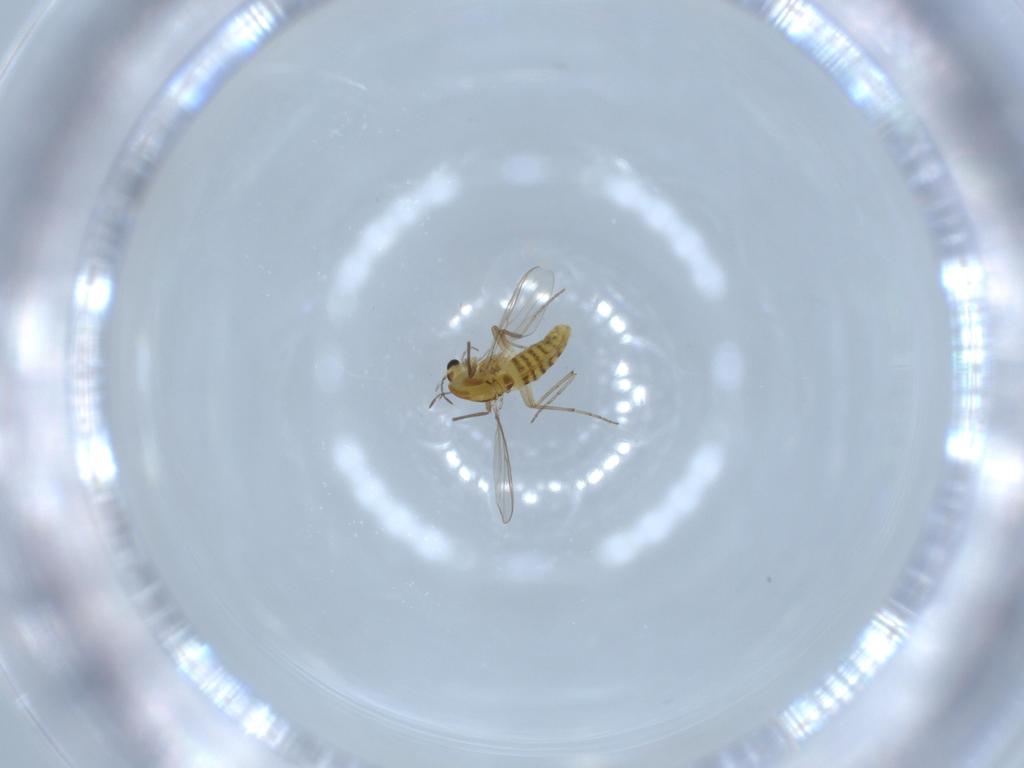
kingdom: Animalia
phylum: Arthropoda
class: Insecta
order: Diptera
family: Chironomidae
